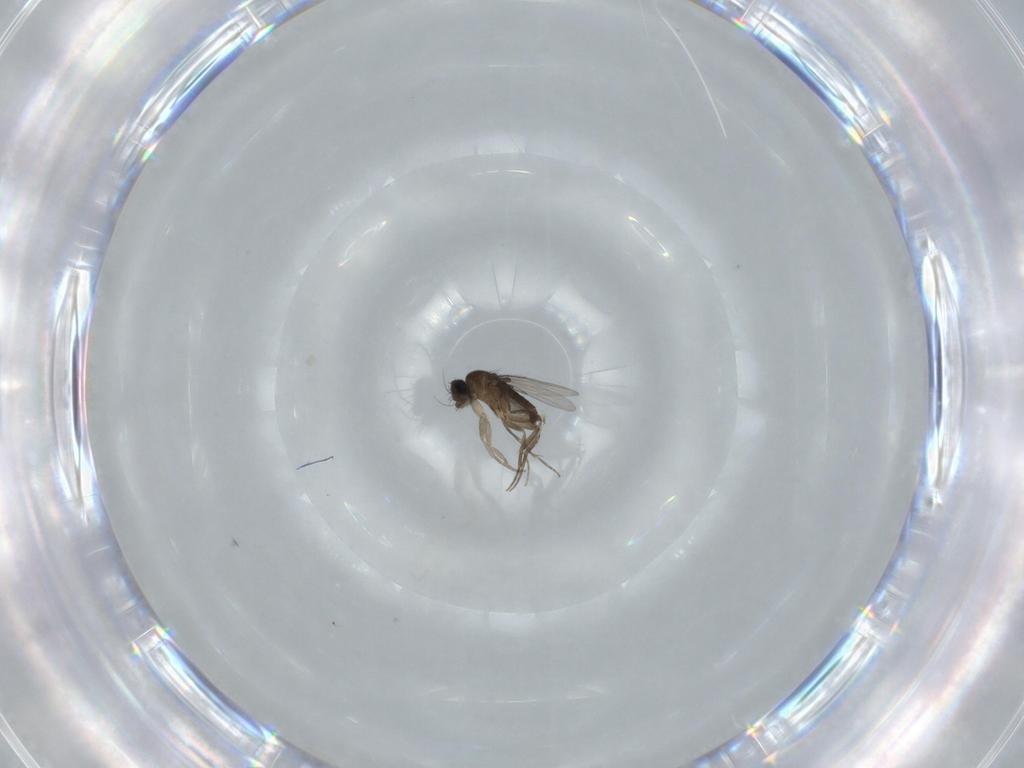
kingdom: Animalia
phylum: Arthropoda
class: Insecta
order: Diptera
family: Phoridae
